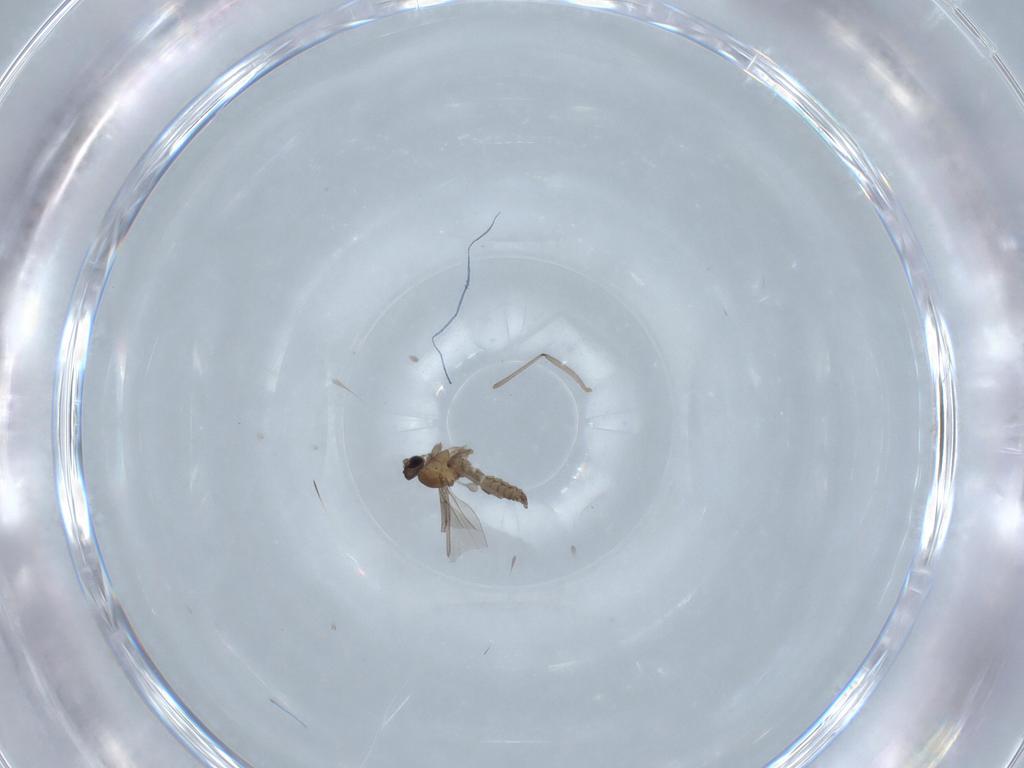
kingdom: Animalia
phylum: Arthropoda
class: Insecta
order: Diptera
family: Cecidomyiidae
